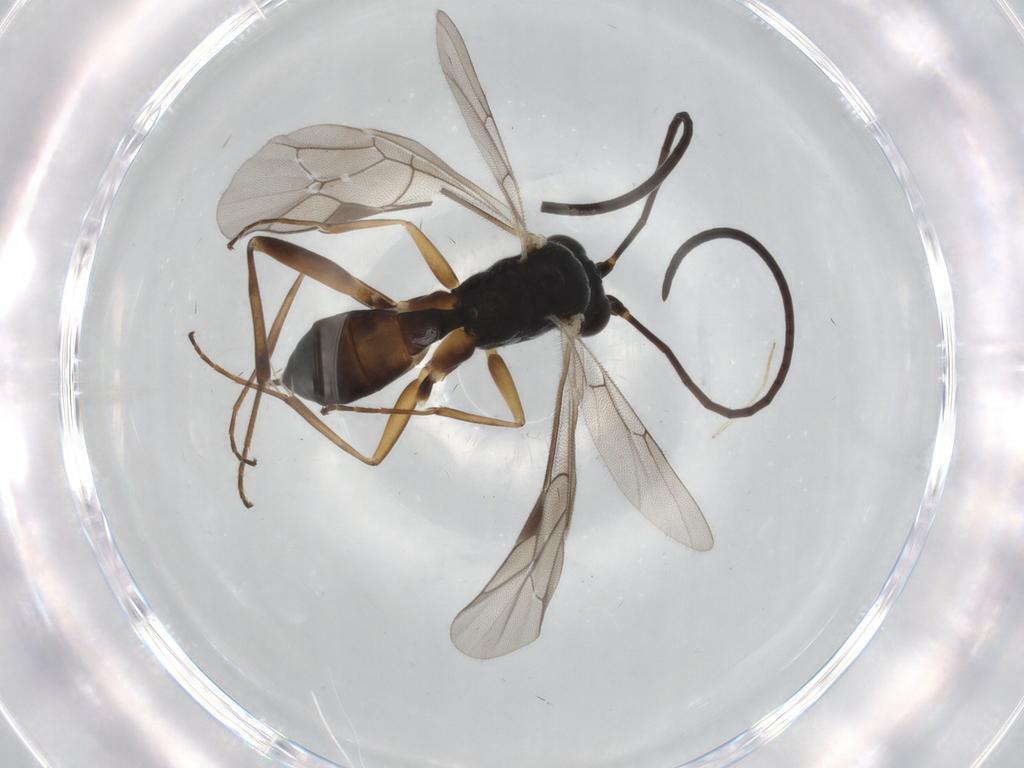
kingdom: Animalia
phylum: Arthropoda
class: Insecta
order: Hymenoptera
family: Ichneumonidae
